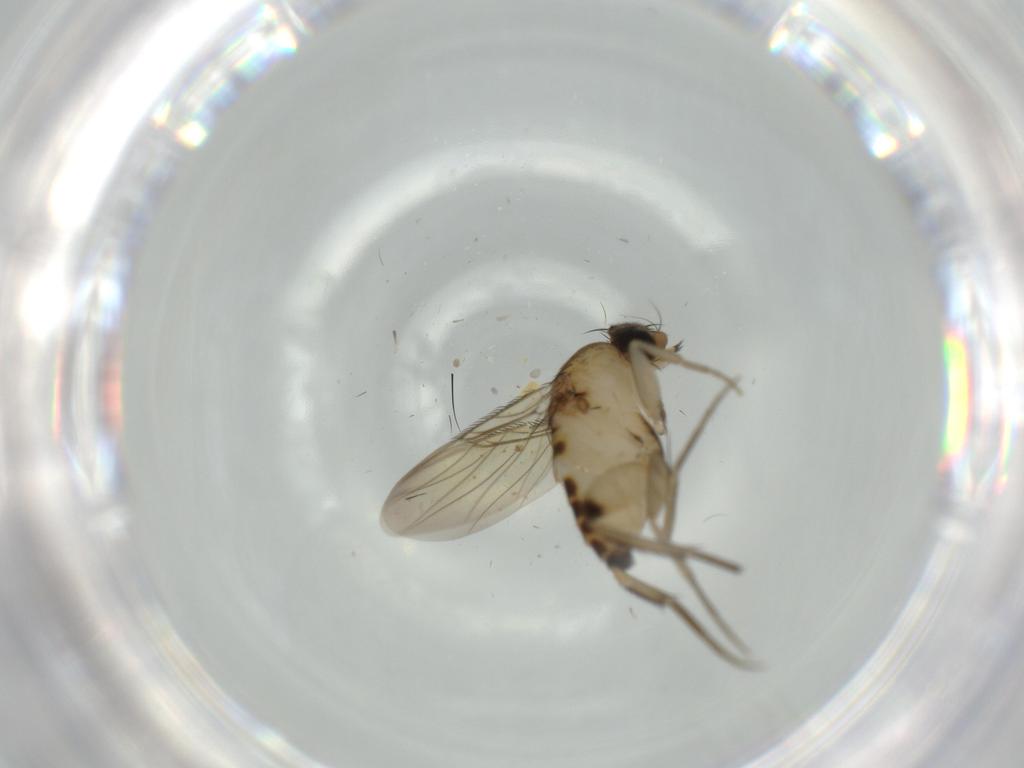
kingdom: Animalia
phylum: Arthropoda
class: Insecta
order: Diptera
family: Phoridae
